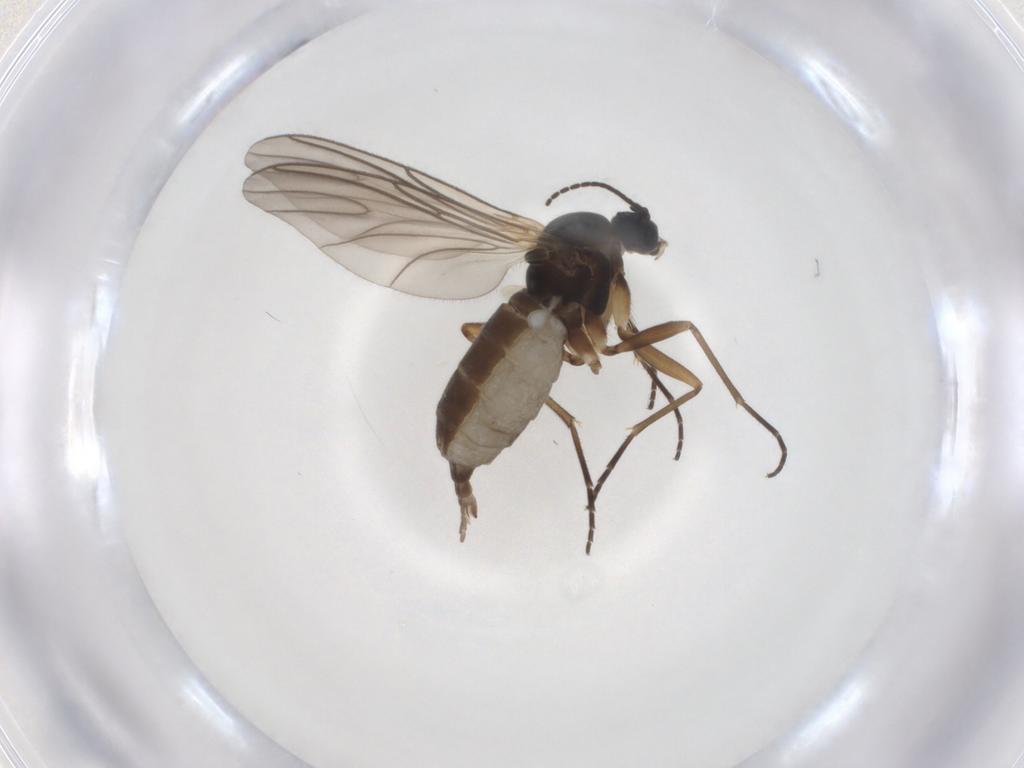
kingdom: Animalia
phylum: Arthropoda
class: Insecta
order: Diptera
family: Sciaridae
